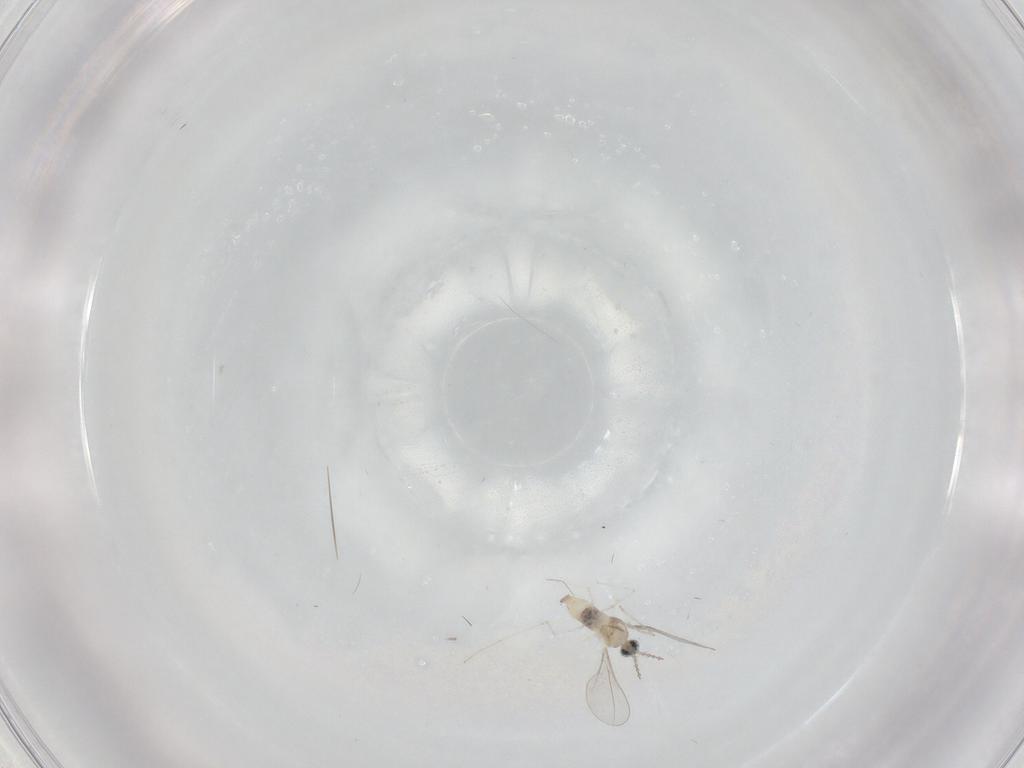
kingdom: Animalia
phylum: Arthropoda
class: Insecta
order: Diptera
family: Cecidomyiidae
